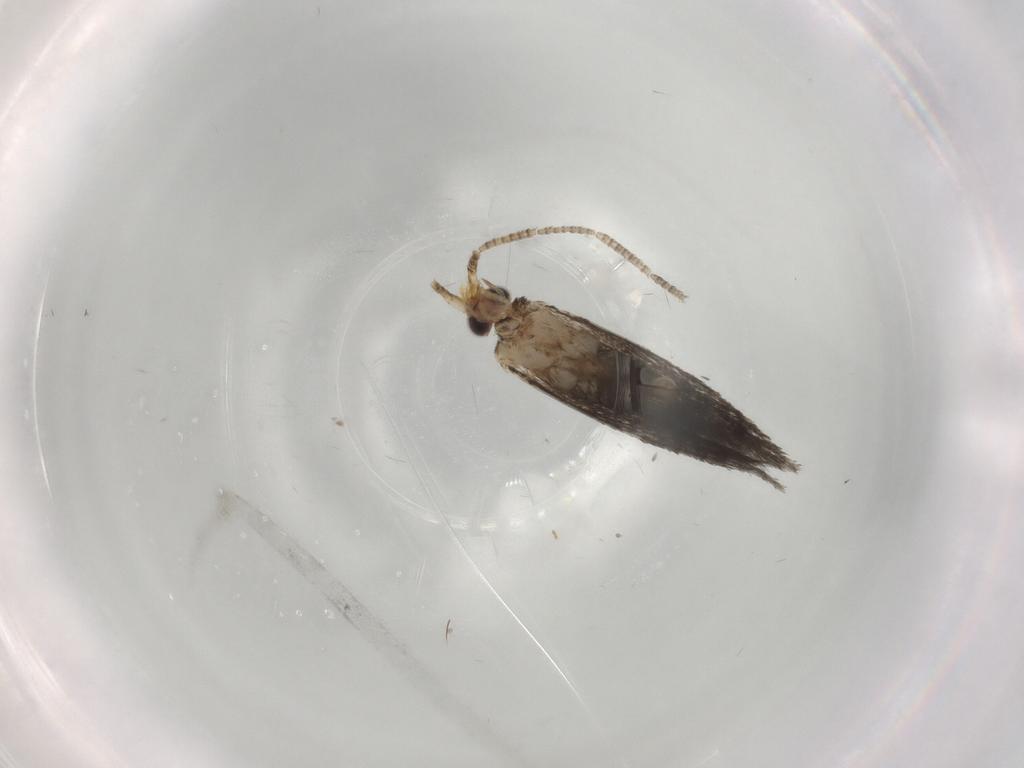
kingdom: Animalia
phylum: Arthropoda
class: Insecta
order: Lepidoptera
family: Tineidae
